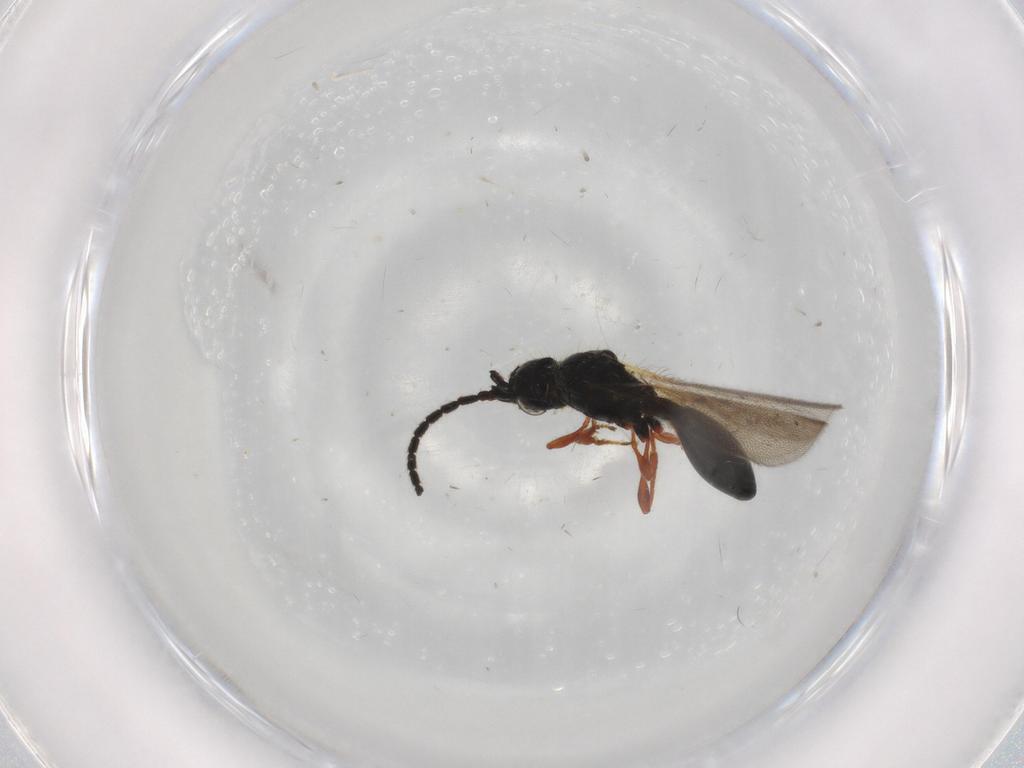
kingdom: Animalia
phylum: Arthropoda
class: Insecta
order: Hymenoptera
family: Diapriidae
